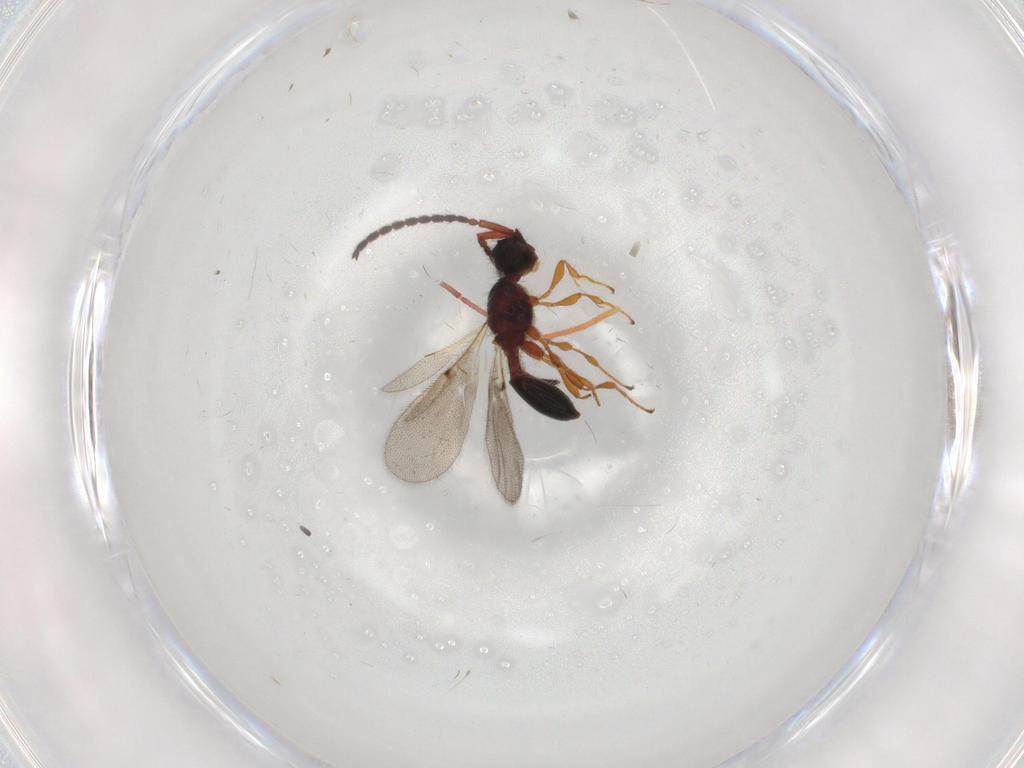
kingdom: Animalia
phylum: Arthropoda
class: Insecta
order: Hymenoptera
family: Diapriidae
